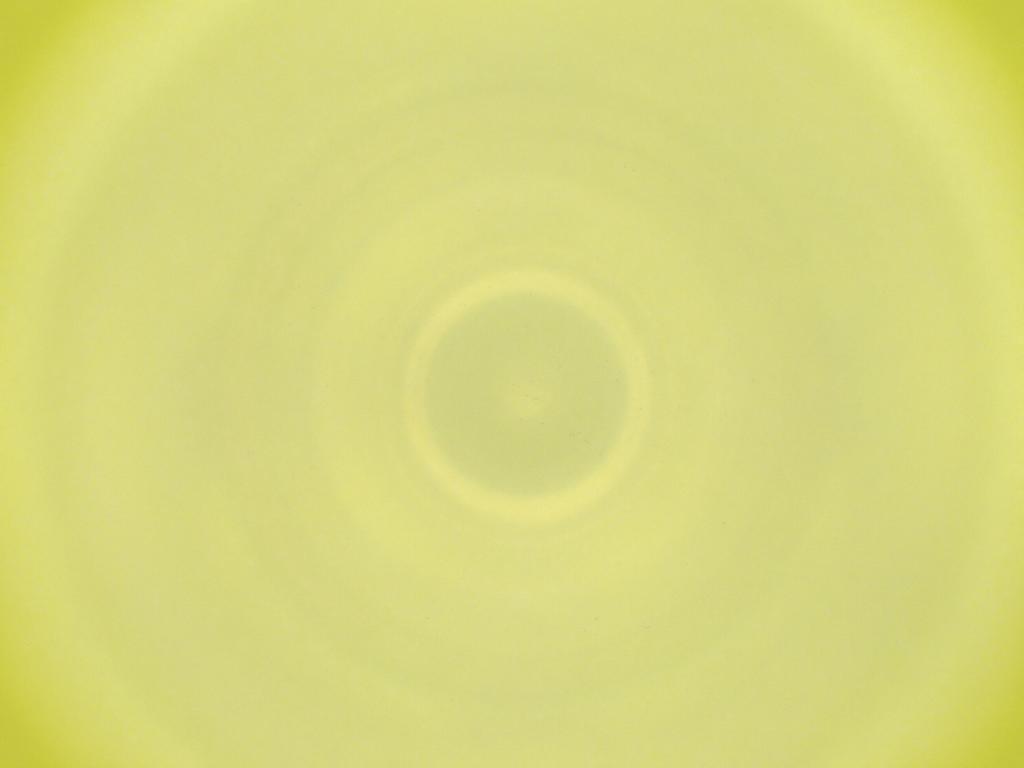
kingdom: Animalia
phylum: Arthropoda
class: Insecta
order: Diptera
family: Cecidomyiidae
